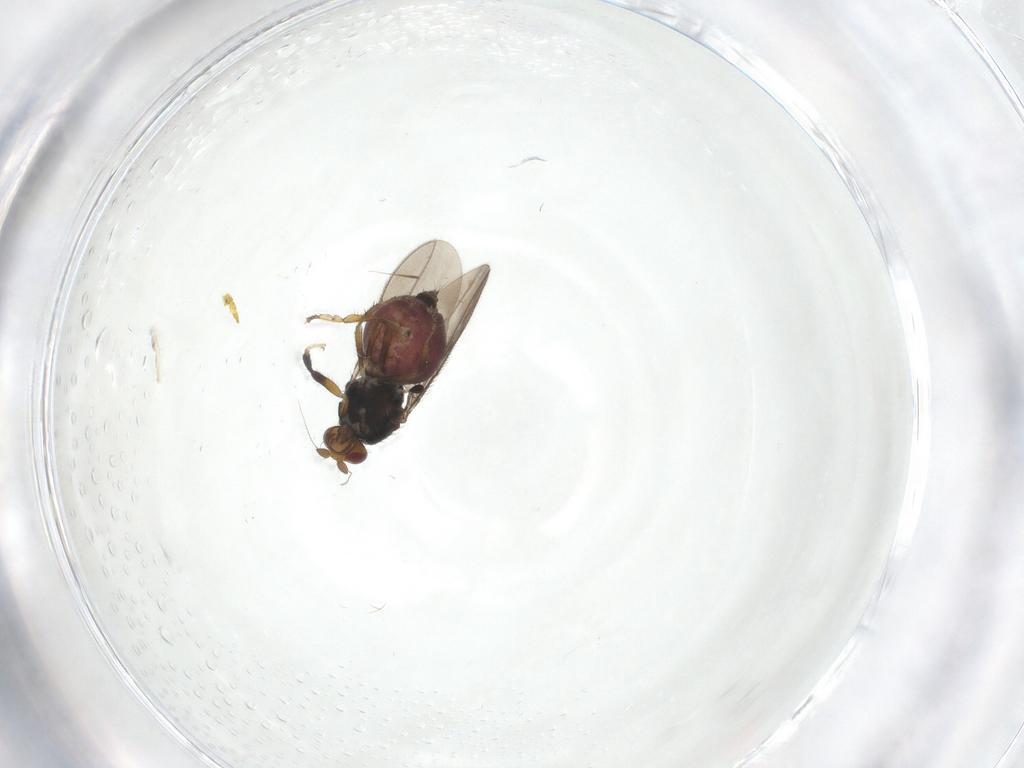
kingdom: Animalia
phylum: Arthropoda
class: Insecta
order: Diptera
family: Sphaeroceridae
